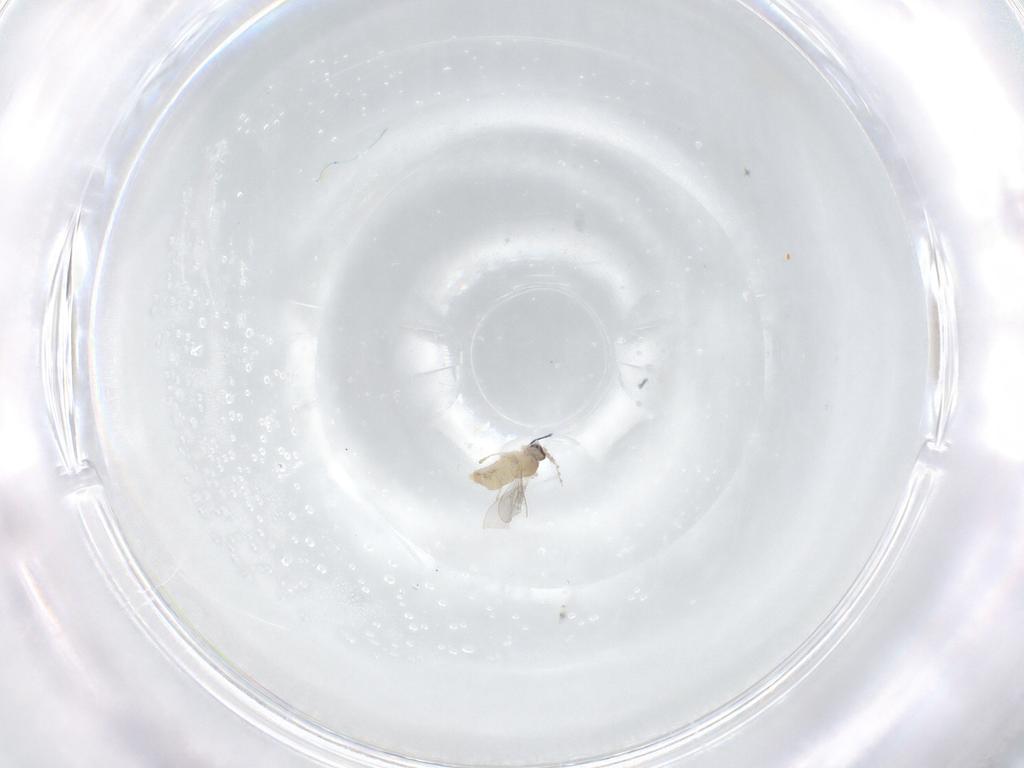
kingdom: Animalia
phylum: Arthropoda
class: Insecta
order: Diptera
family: Cecidomyiidae
